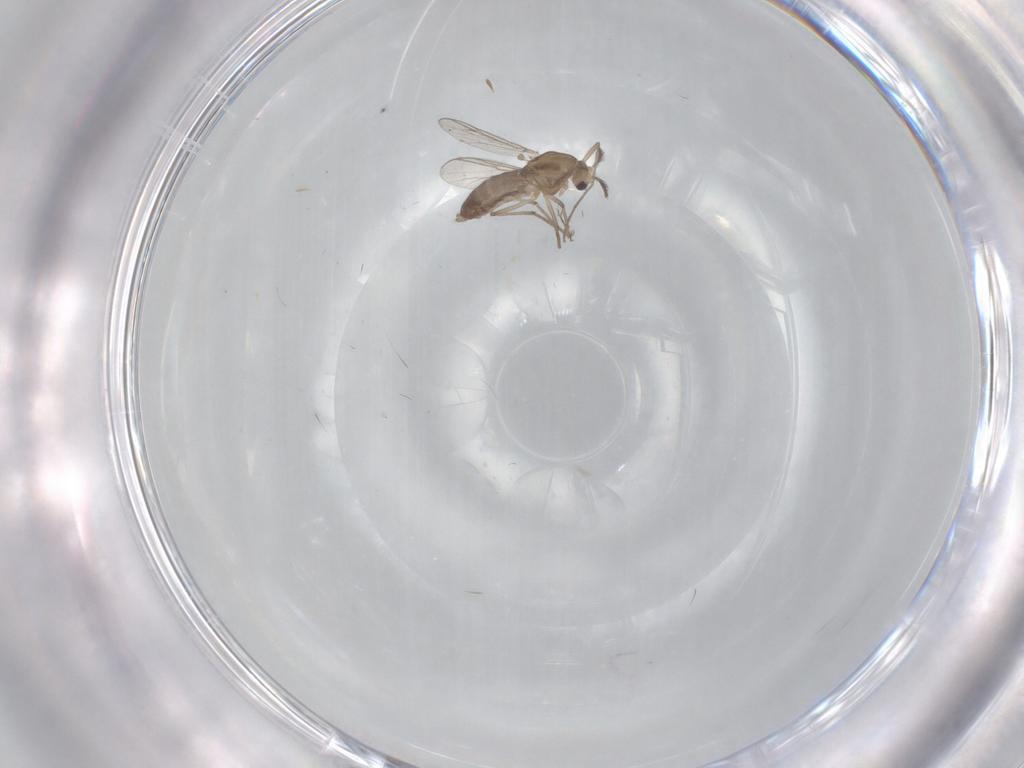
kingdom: Animalia
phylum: Arthropoda
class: Insecta
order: Diptera
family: Chironomidae
